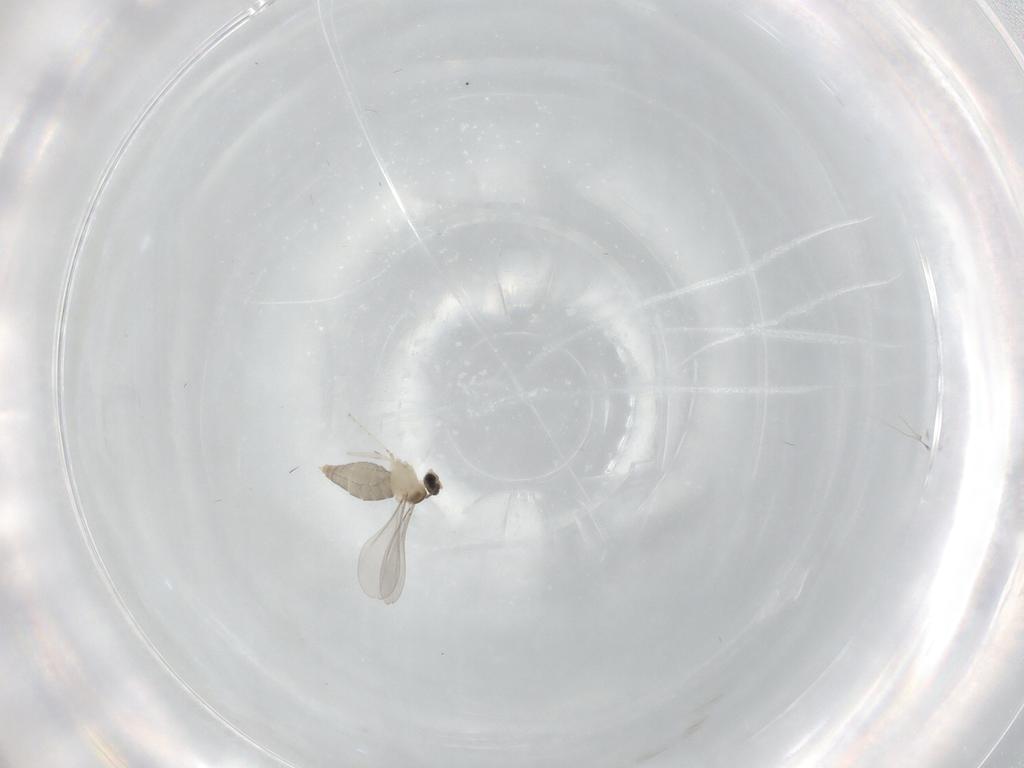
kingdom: Animalia
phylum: Arthropoda
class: Insecta
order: Diptera
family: Cecidomyiidae
